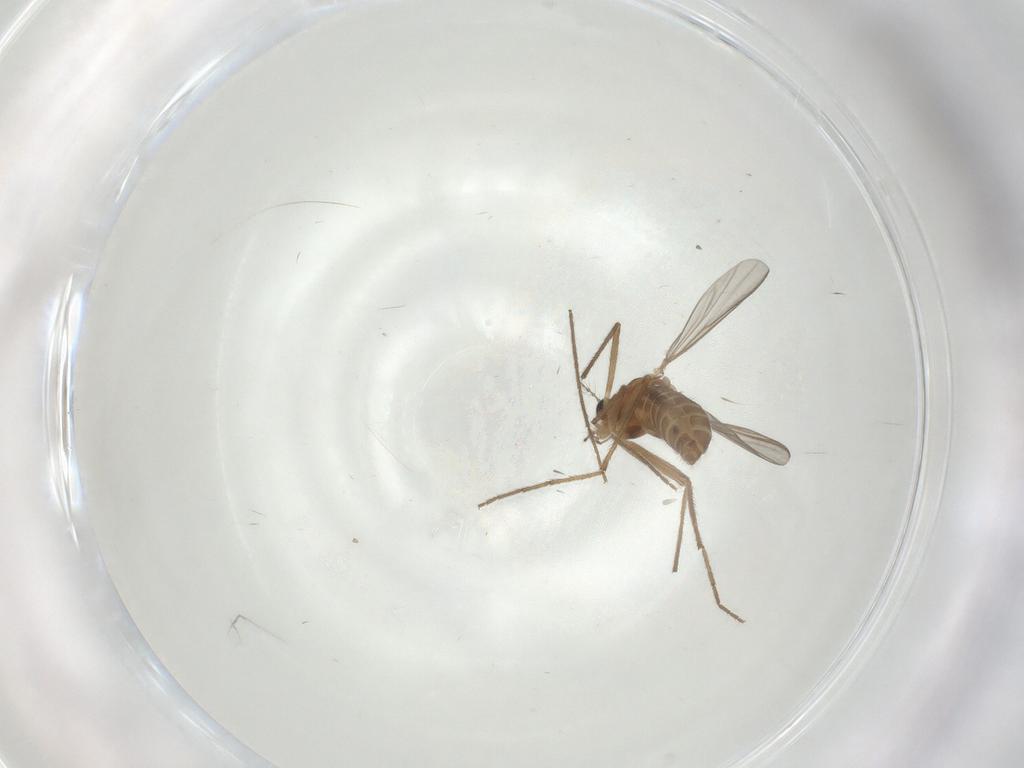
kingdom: Animalia
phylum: Arthropoda
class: Insecta
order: Diptera
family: Chironomidae
